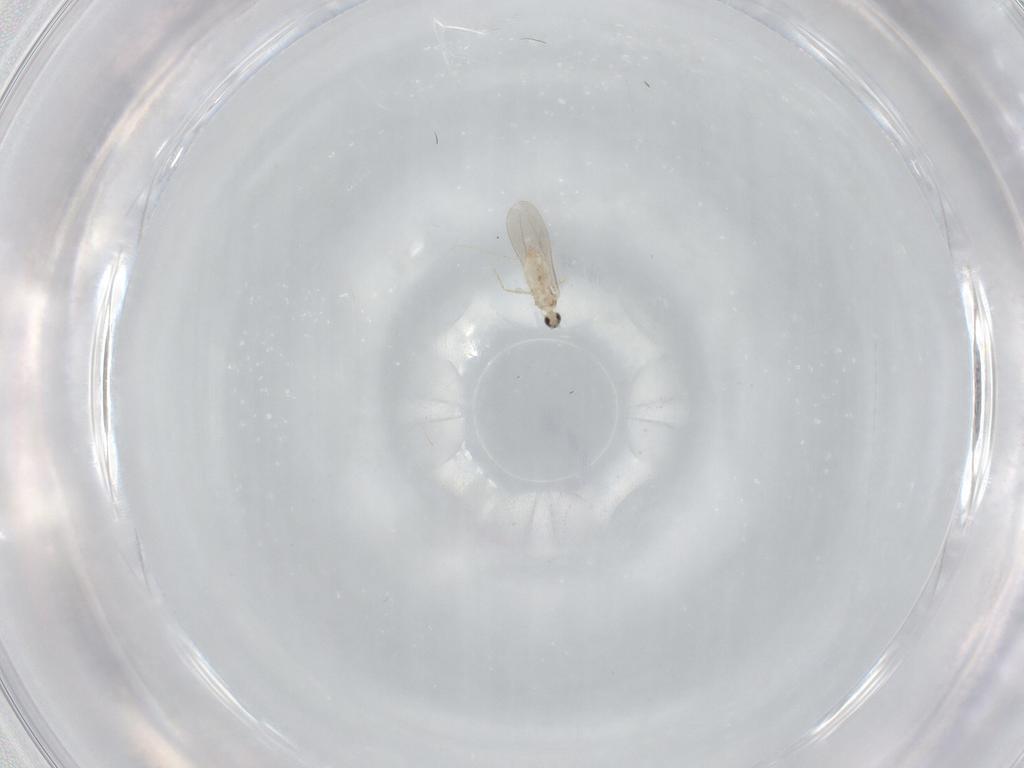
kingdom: Animalia
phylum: Arthropoda
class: Insecta
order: Diptera
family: Cecidomyiidae
